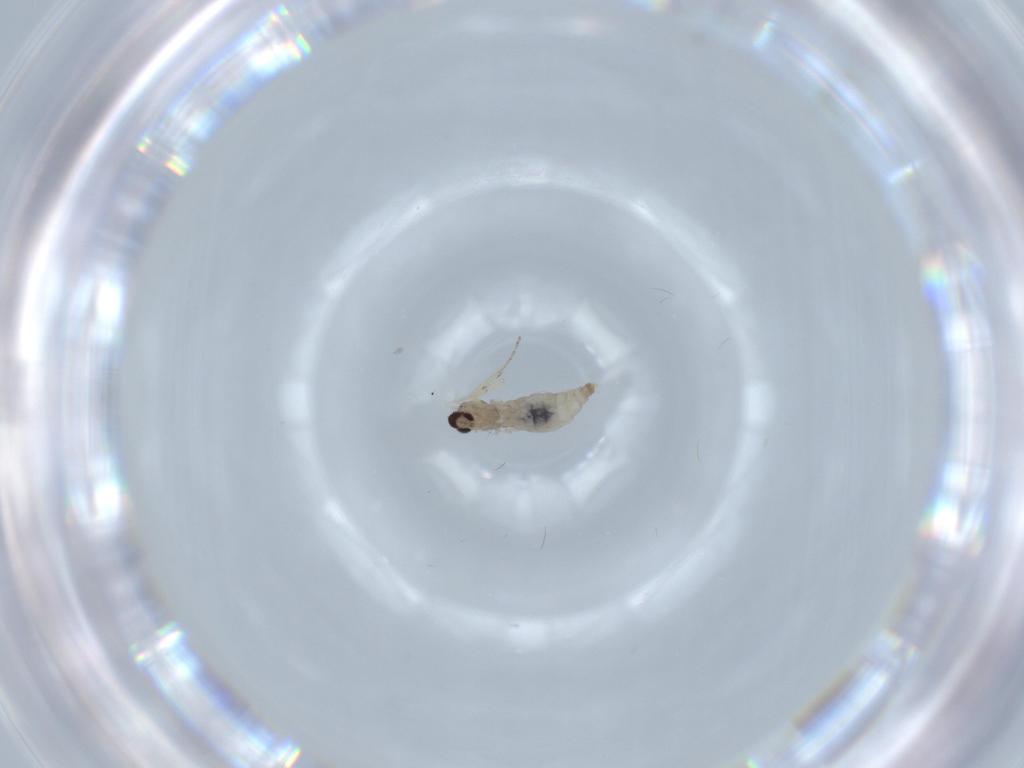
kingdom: Animalia
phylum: Arthropoda
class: Insecta
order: Diptera
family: Cecidomyiidae
